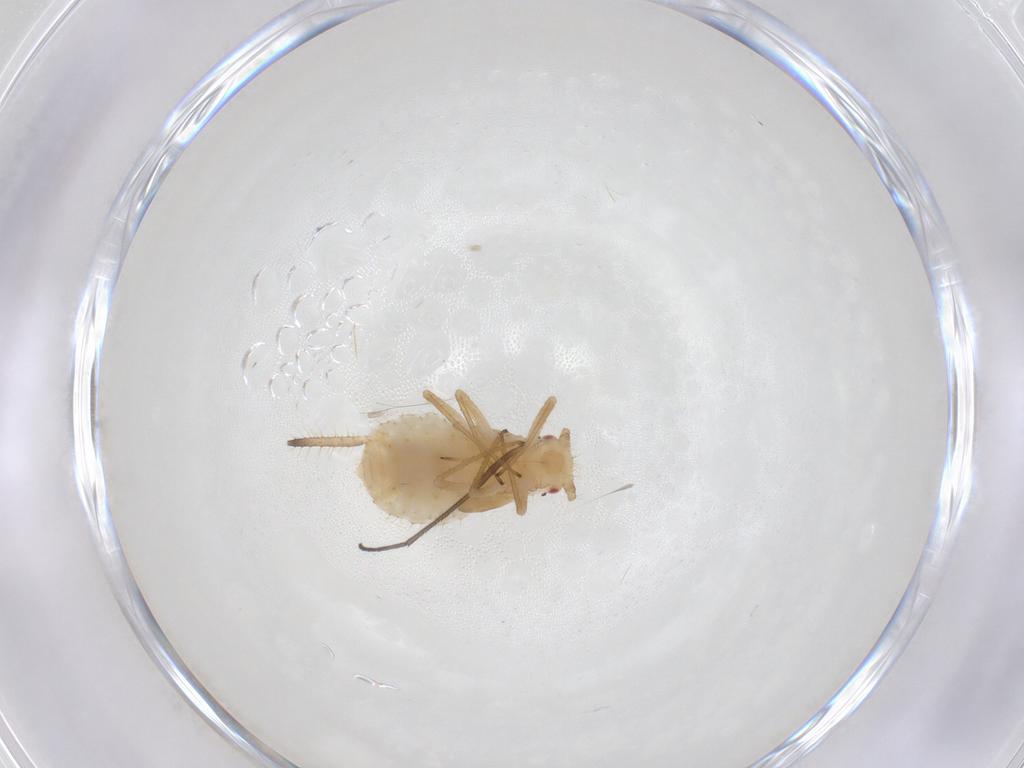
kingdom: Animalia
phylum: Arthropoda
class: Insecta
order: Hemiptera
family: Aphididae
